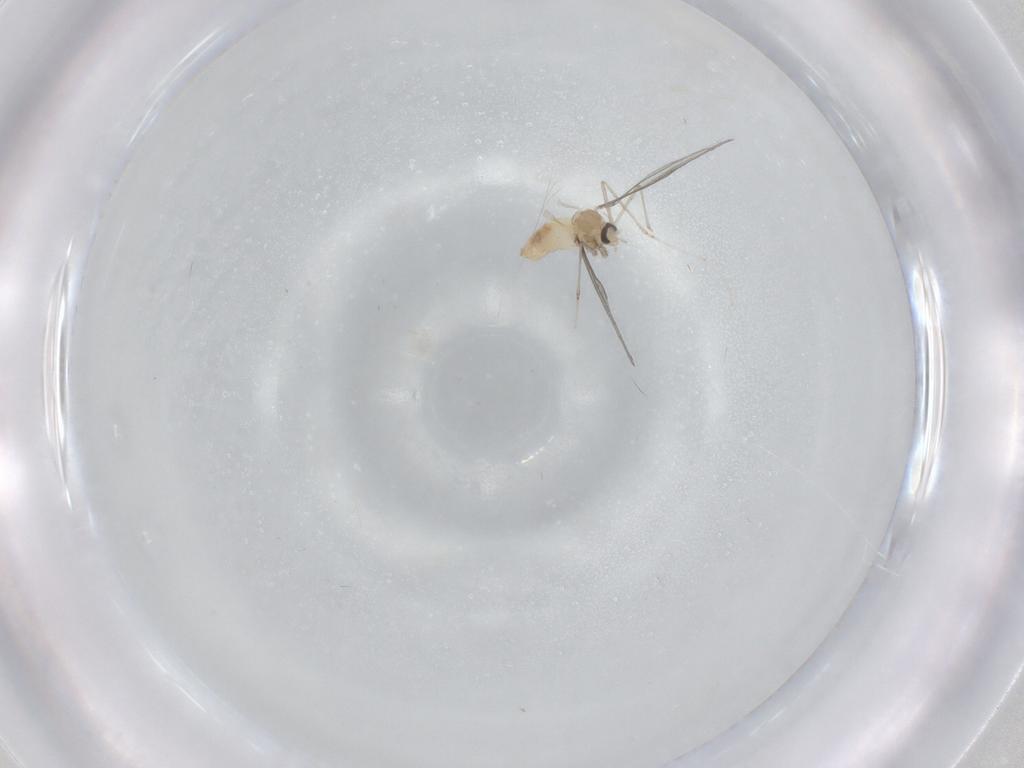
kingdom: Animalia
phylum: Arthropoda
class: Insecta
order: Diptera
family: Cecidomyiidae
